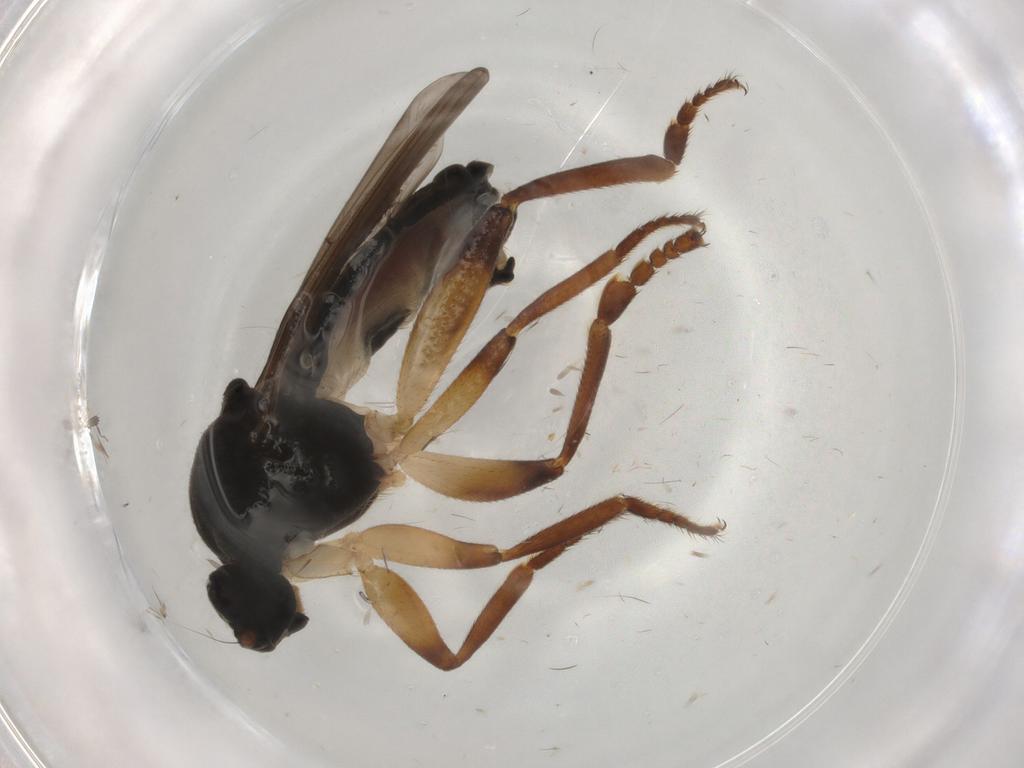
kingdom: Animalia
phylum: Arthropoda
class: Insecta
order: Diptera
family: Sphaeroceridae
